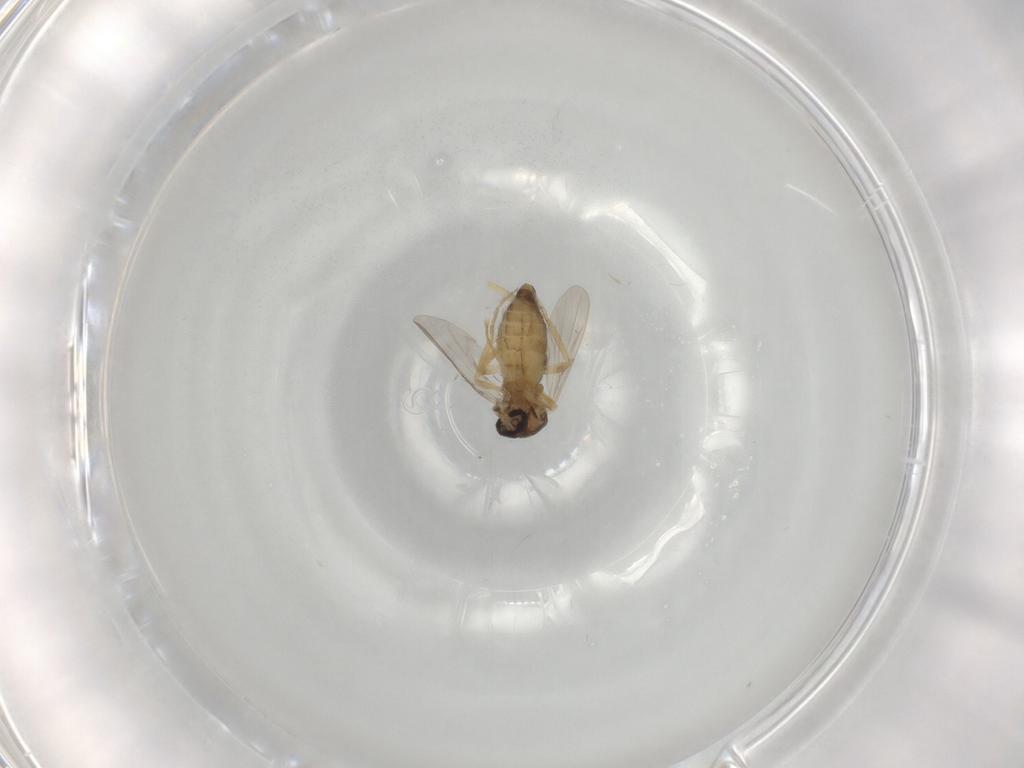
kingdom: Animalia
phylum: Arthropoda
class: Insecta
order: Diptera
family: Ceratopogonidae
